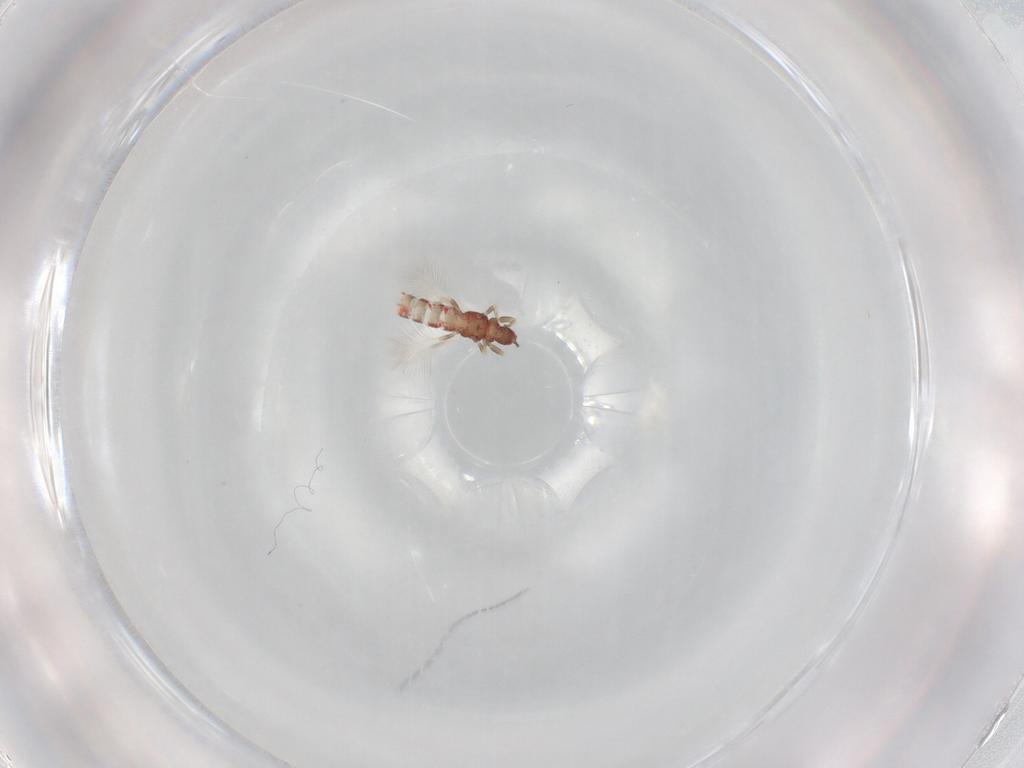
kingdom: Animalia
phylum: Arthropoda
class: Insecta
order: Thysanoptera
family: Phlaeothripidae
